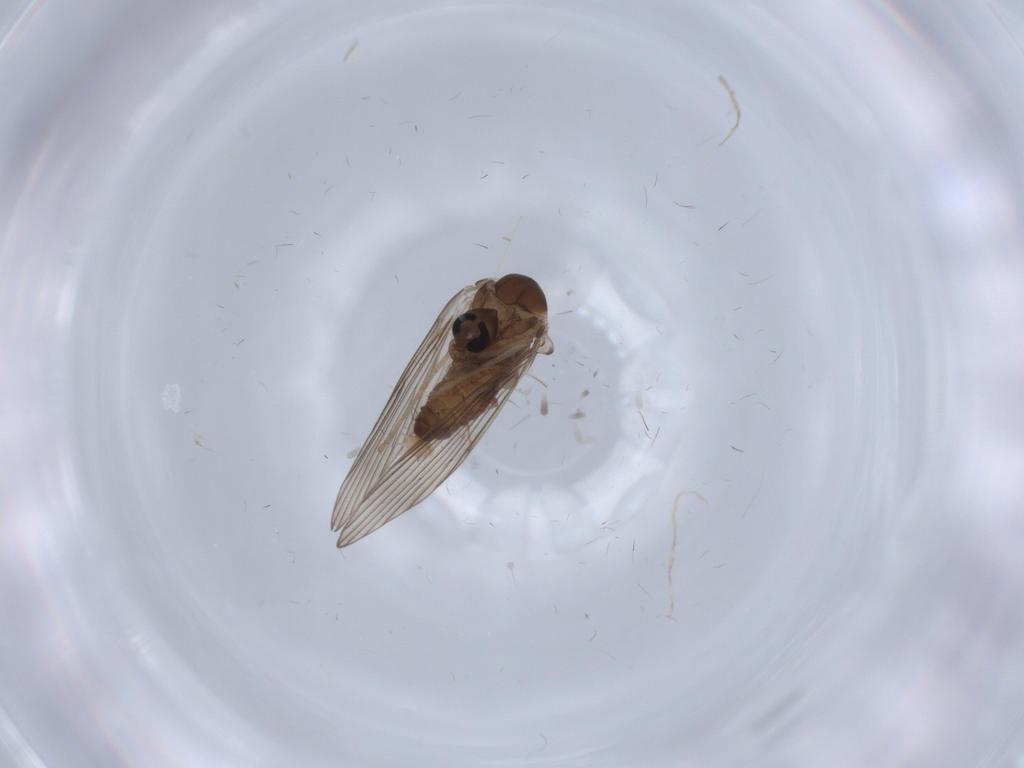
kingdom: Animalia
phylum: Arthropoda
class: Insecta
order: Diptera
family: Psychodidae
